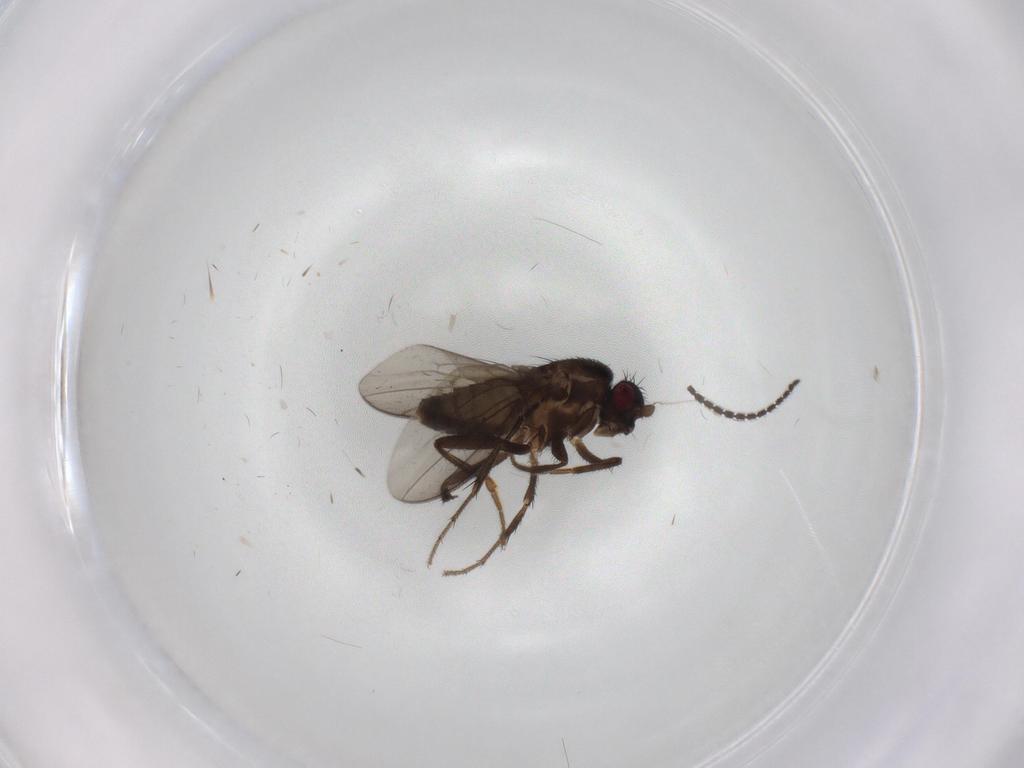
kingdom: Animalia
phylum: Arthropoda
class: Insecta
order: Diptera
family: Sphaeroceridae
